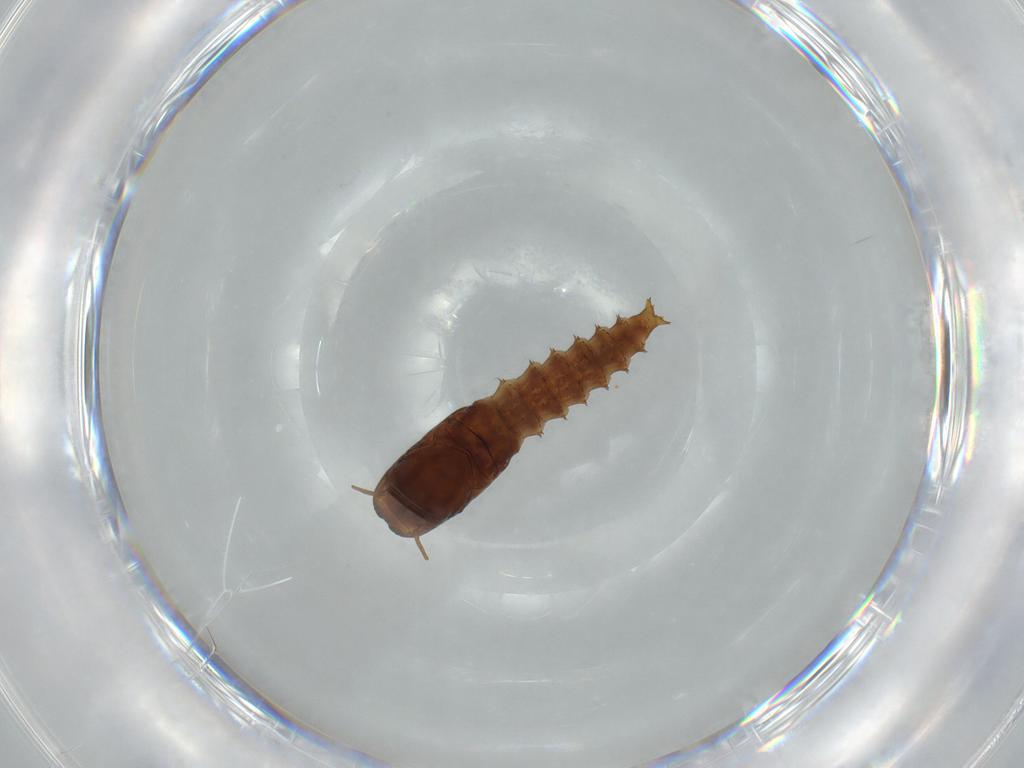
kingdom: Animalia
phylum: Arthropoda
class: Insecta
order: Diptera
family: Ceratopogonidae
